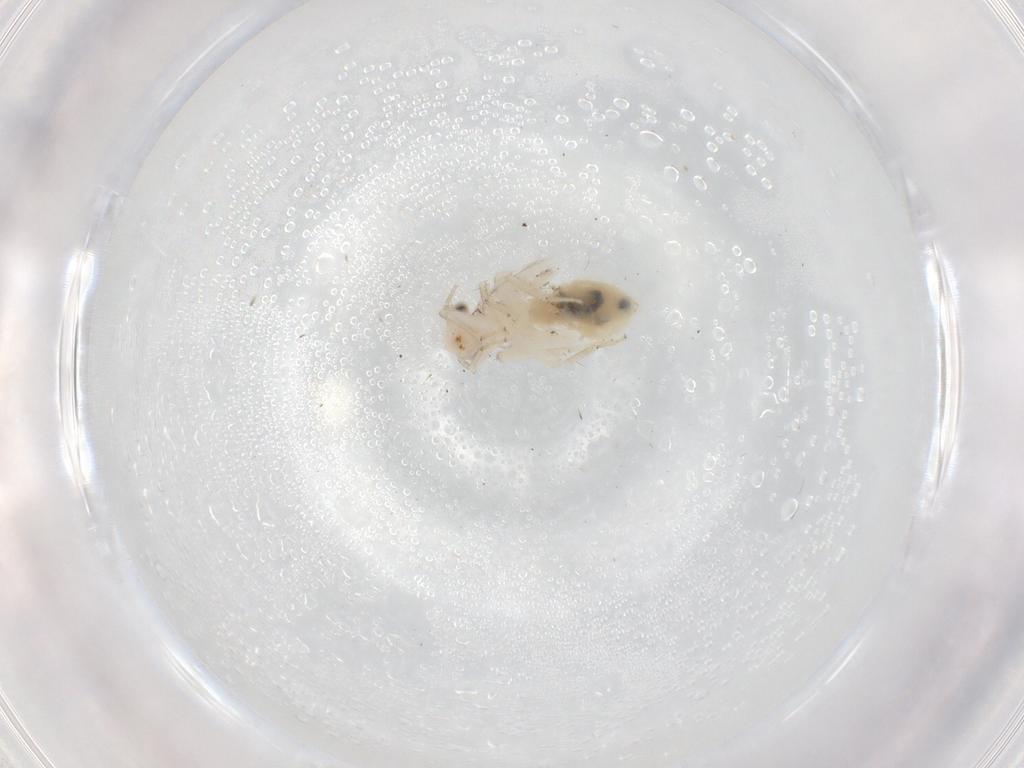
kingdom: Animalia
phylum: Arthropoda
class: Insecta
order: Psocodea
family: Lepidopsocidae
